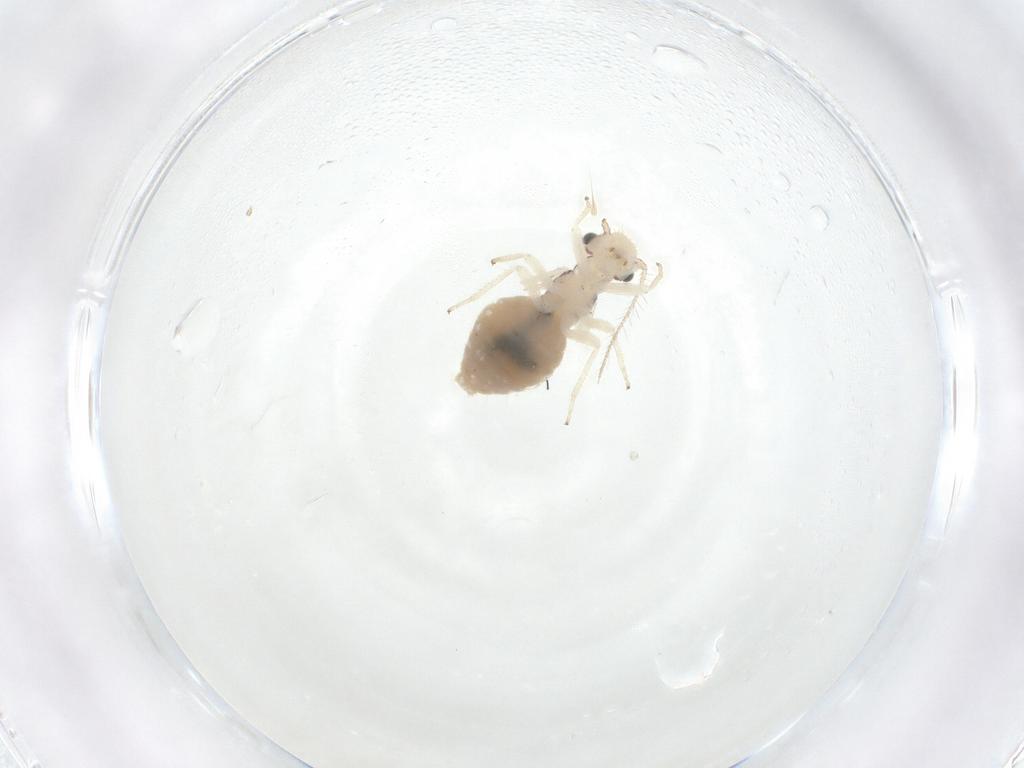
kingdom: Animalia
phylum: Arthropoda
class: Insecta
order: Psocodea
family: Pseudocaeciliidae
